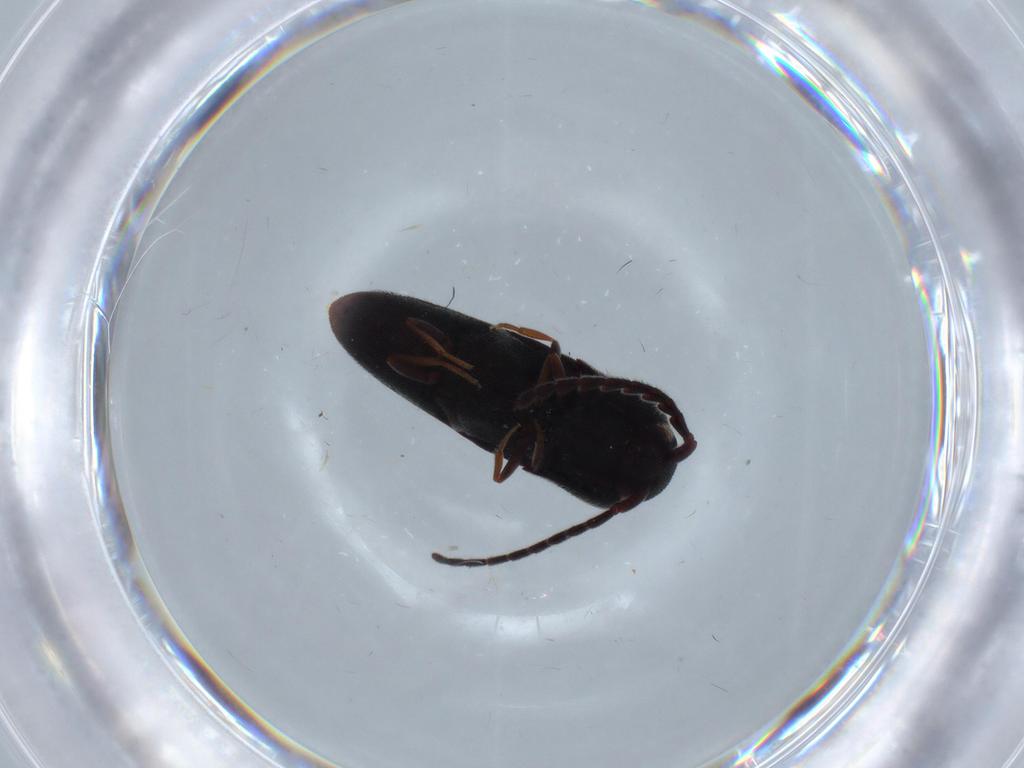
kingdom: Animalia
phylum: Arthropoda
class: Insecta
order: Coleoptera
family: Eucnemidae
